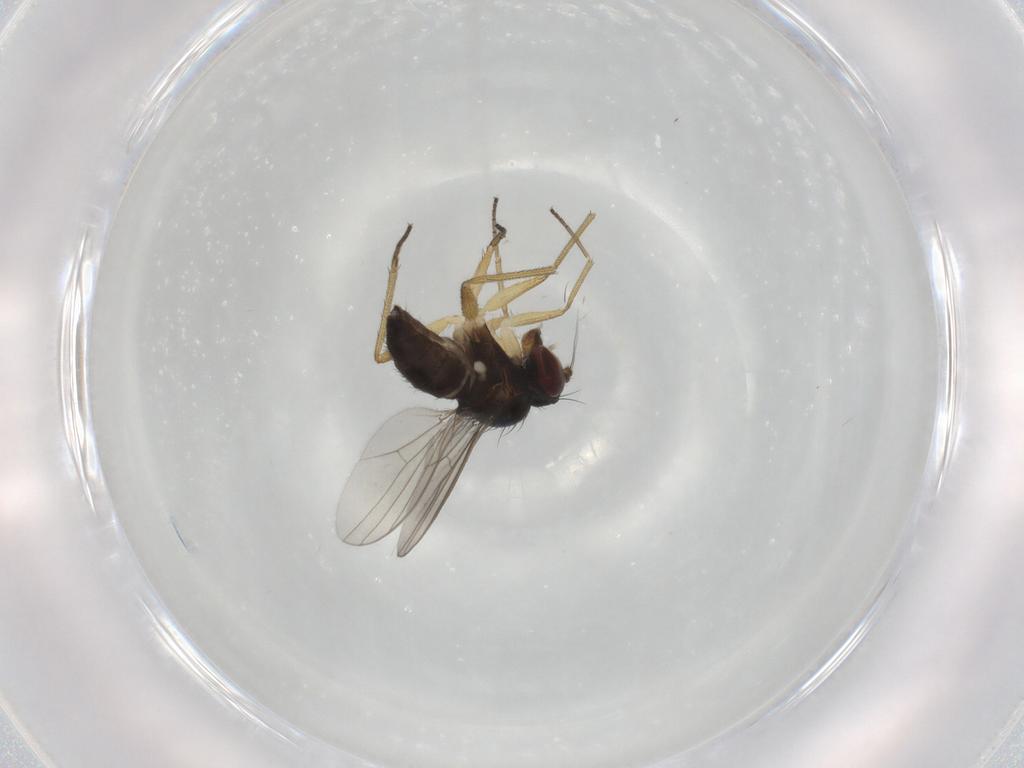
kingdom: Animalia
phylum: Arthropoda
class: Insecta
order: Diptera
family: Dolichopodidae
